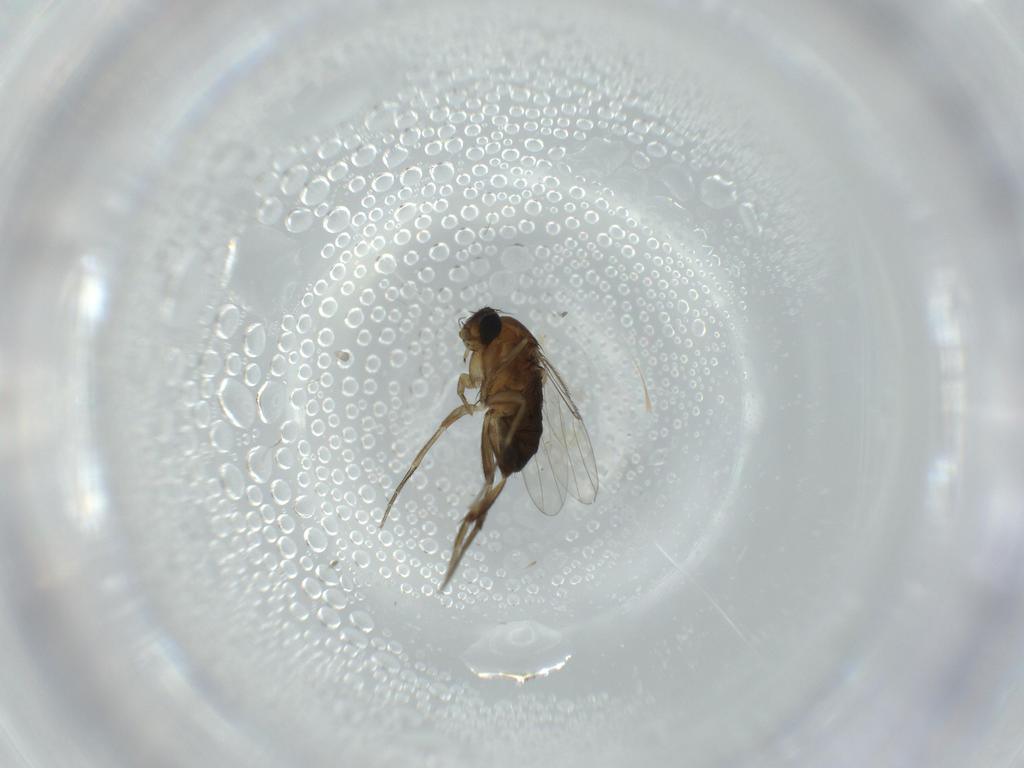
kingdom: Animalia
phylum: Arthropoda
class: Insecta
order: Diptera
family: Phoridae
